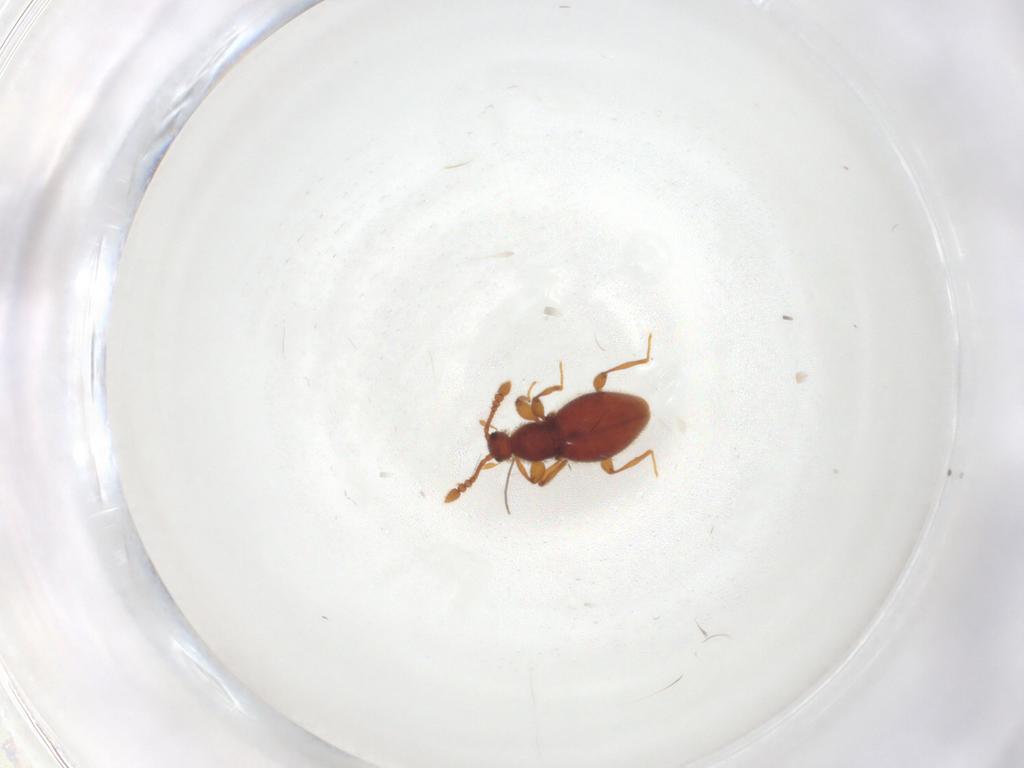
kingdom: Animalia
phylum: Arthropoda
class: Insecta
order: Coleoptera
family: Staphylinidae
